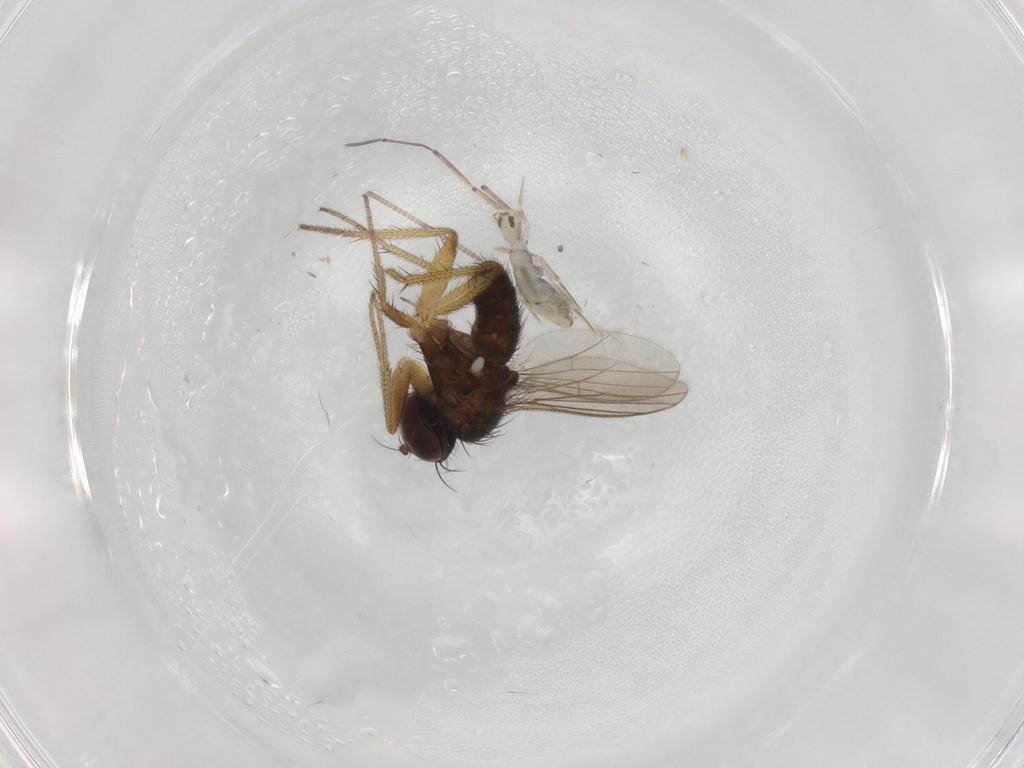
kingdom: Animalia
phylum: Arthropoda
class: Insecta
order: Diptera
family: Dolichopodidae
